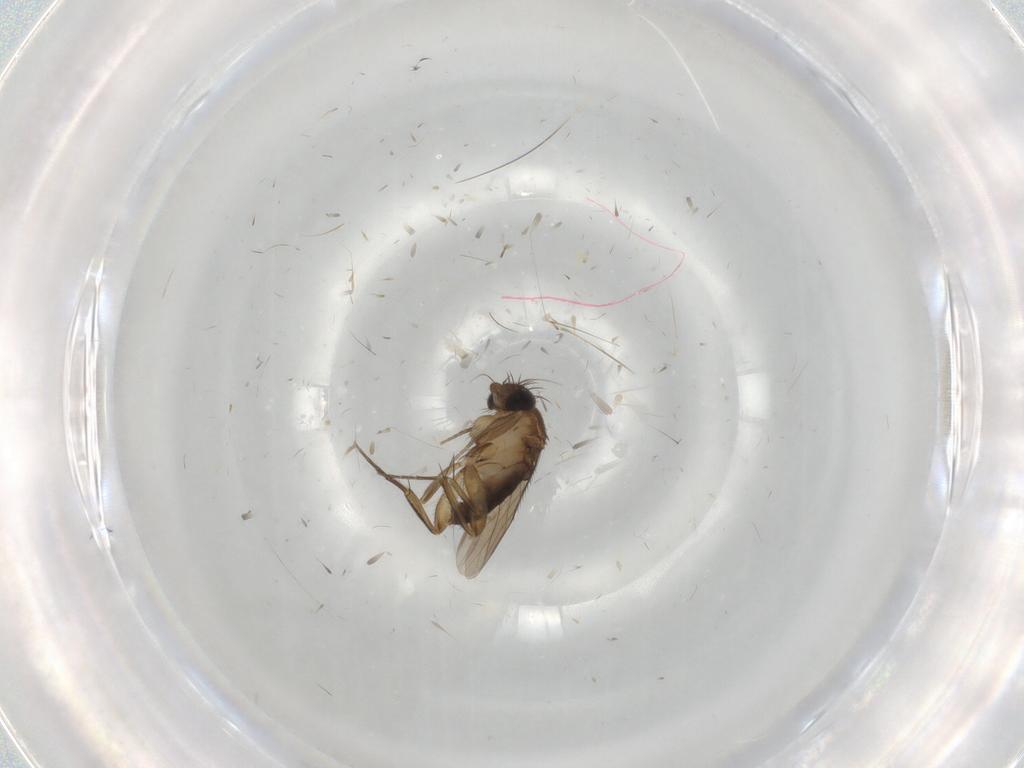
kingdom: Animalia
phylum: Arthropoda
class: Insecta
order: Diptera
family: Phoridae
